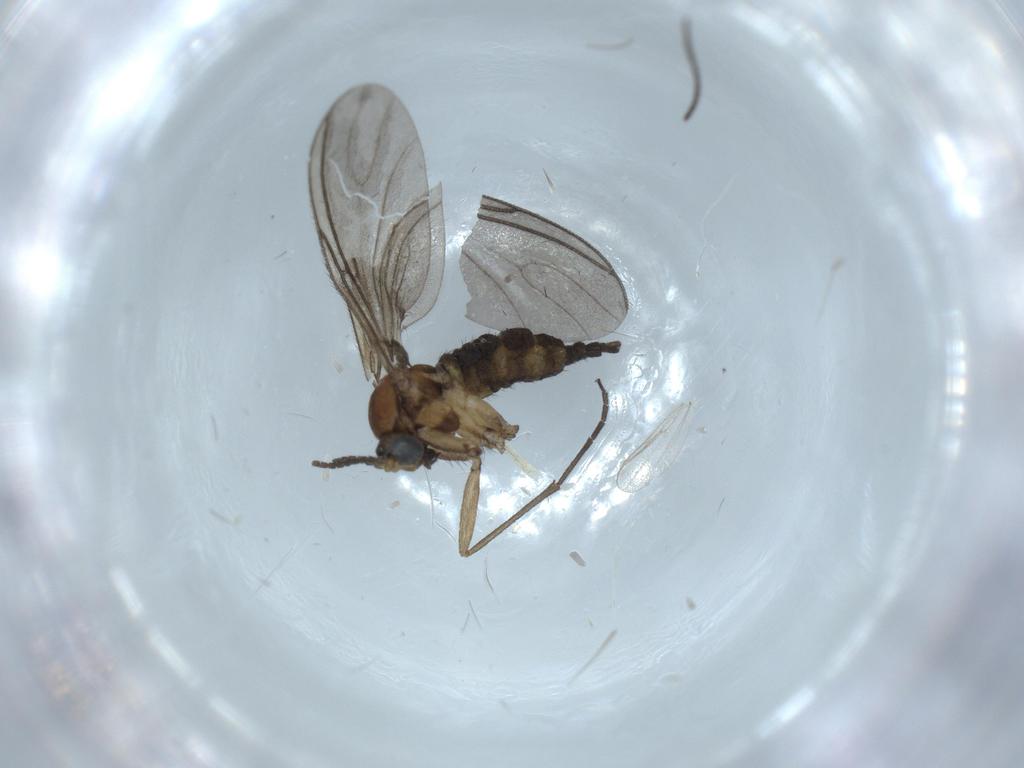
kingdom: Animalia
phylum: Arthropoda
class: Insecta
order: Diptera
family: Sciaridae
